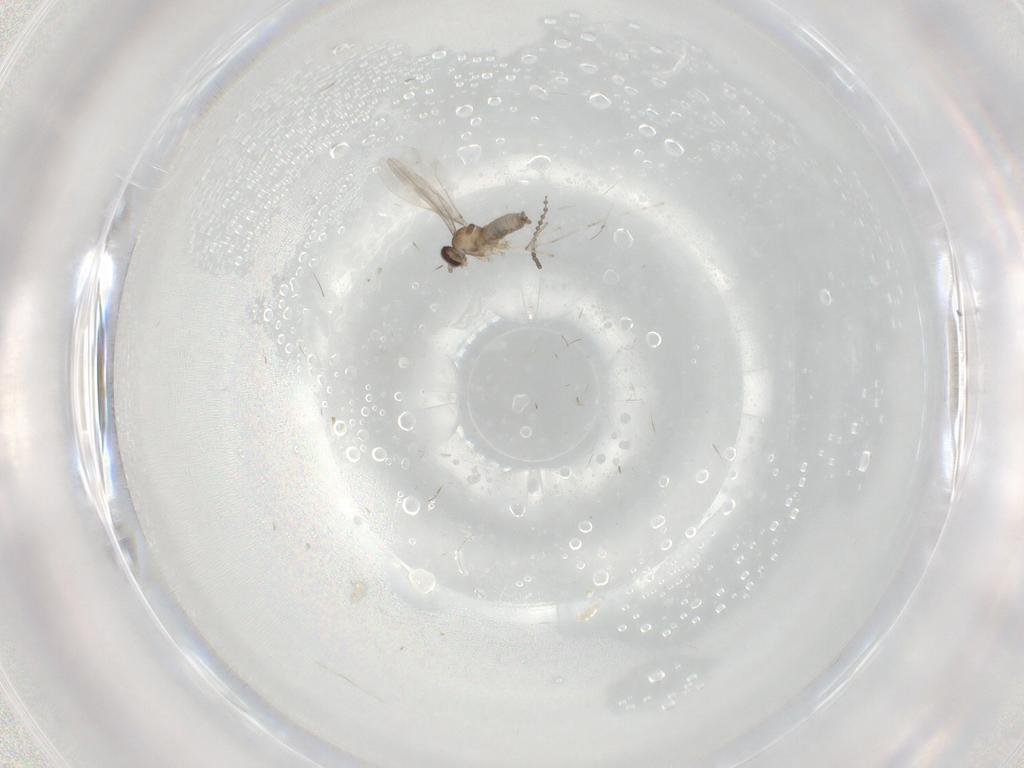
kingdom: Animalia
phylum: Arthropoda
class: Insecta
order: Diptera
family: Cecidomyiidae
